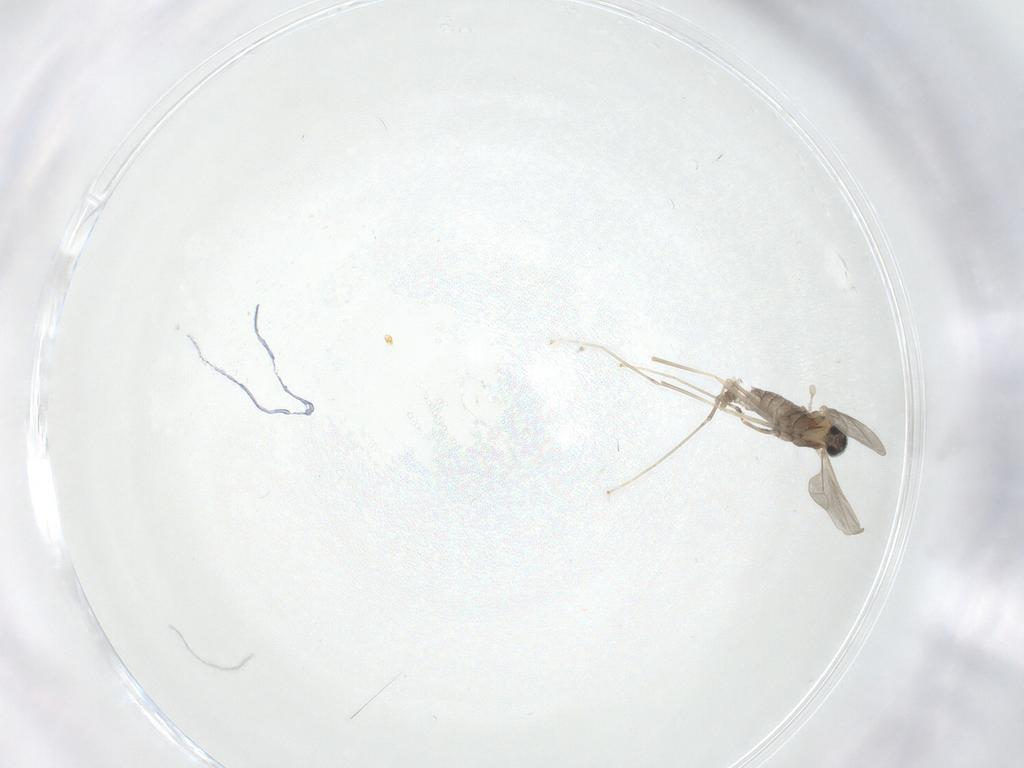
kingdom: Animalia
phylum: Arthropoda
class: Insecta
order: Diptera
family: Cecidomyiidae
